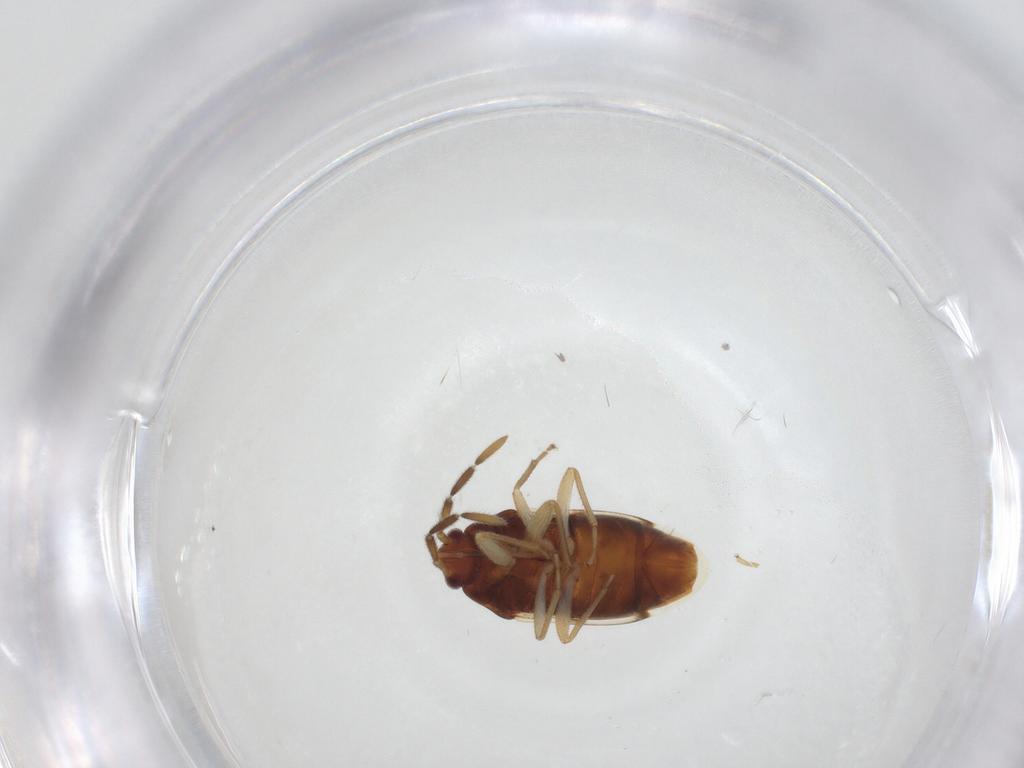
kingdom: Animalia
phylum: Arthropoda
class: Insecta
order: Hemiptera
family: Rhyparochromidae
